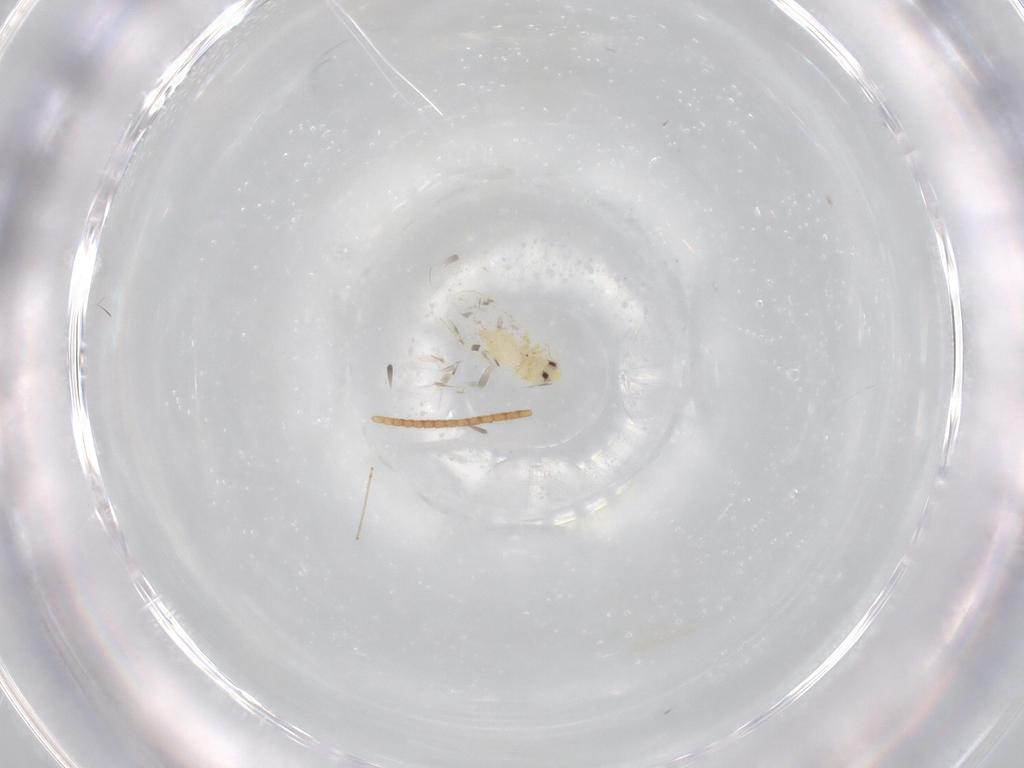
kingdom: Animalia
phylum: Arthropoda
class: Insecta
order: Hemiptera
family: Aleyrodidae
